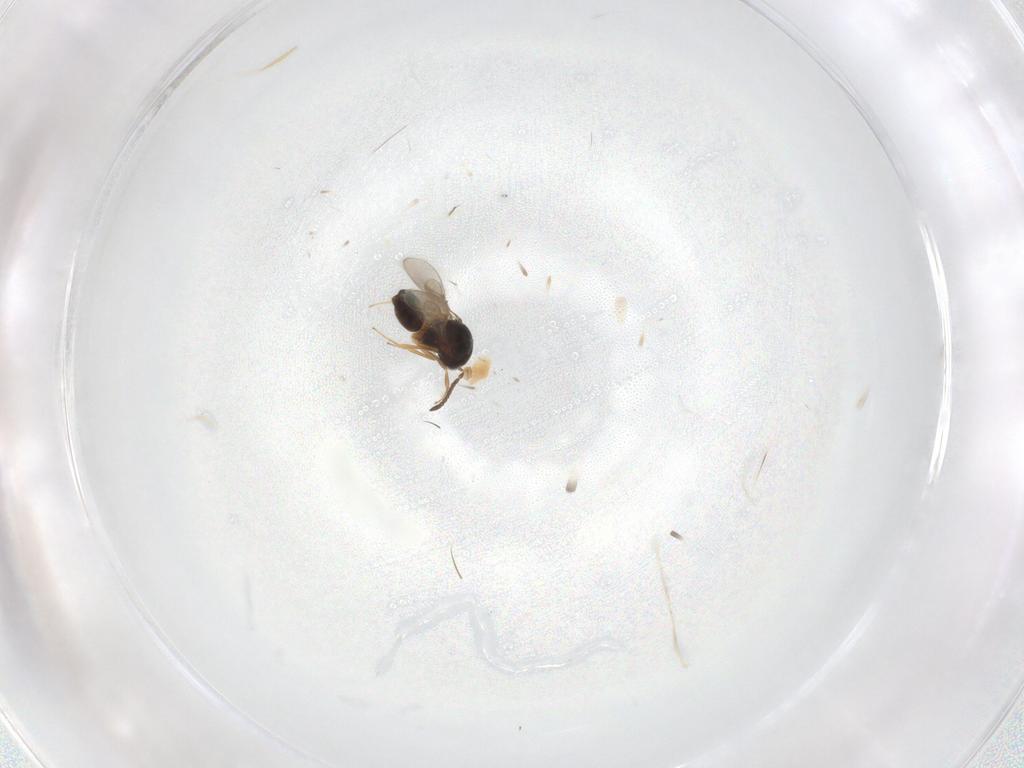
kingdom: Animalia
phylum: Arthropoda
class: Insecta
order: Hymenoptera
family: Scelionidae
